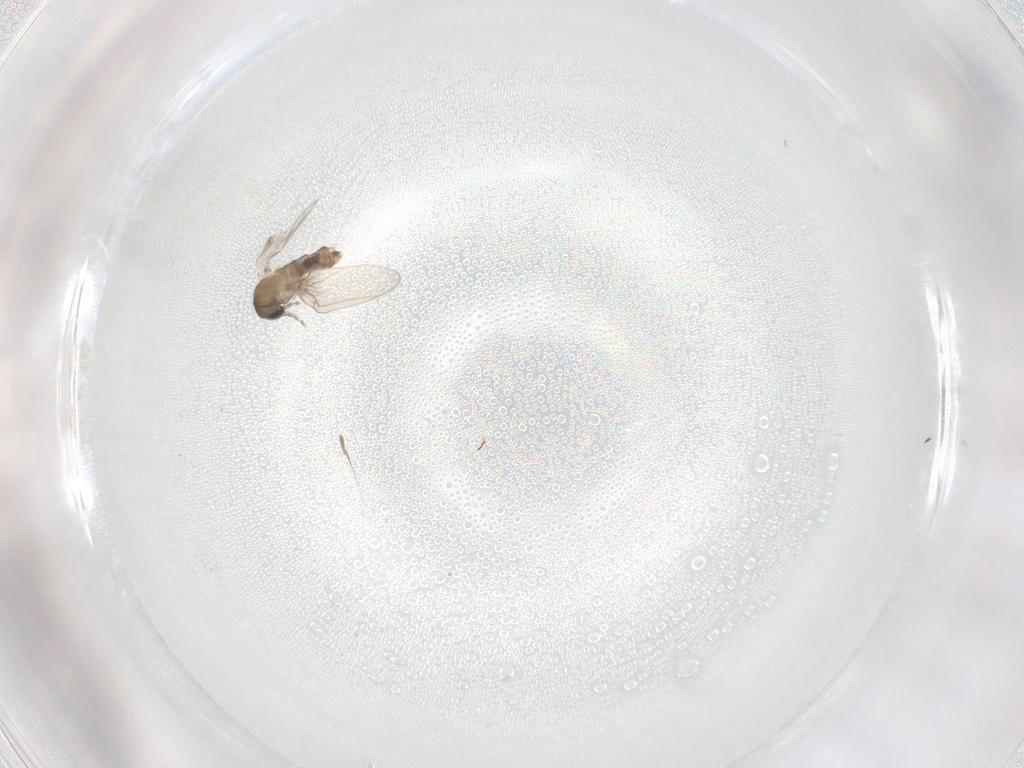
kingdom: Animalia
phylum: Arthropoda
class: Insecta
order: Diptera
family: Psychodidae
